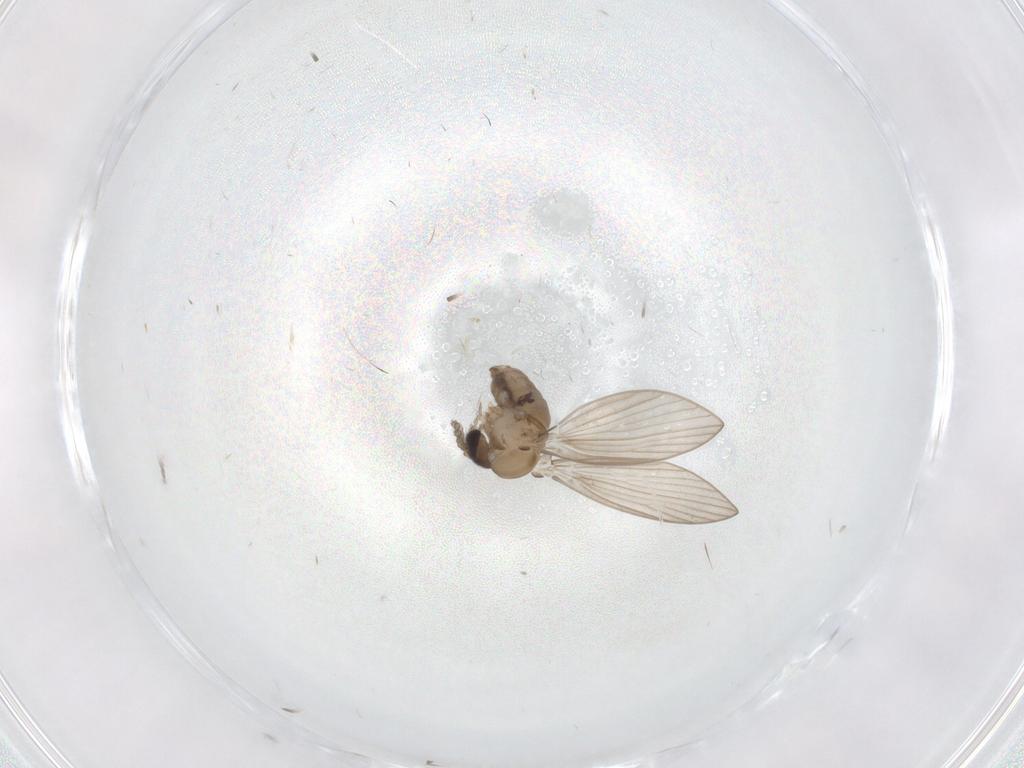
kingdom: Animalia
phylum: Arthropoda
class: Insecta
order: Diptera
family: Psychodidae
